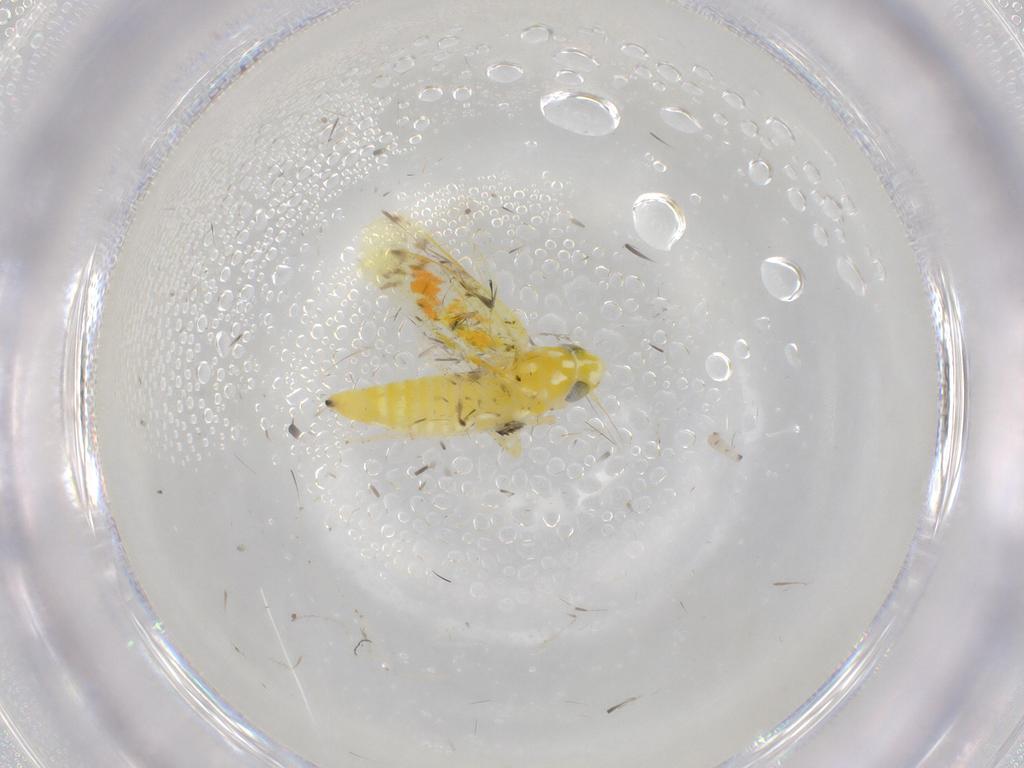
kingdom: Animalia
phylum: Arthropoda
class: Insecta
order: Hemiptera
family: Cicadellidae
